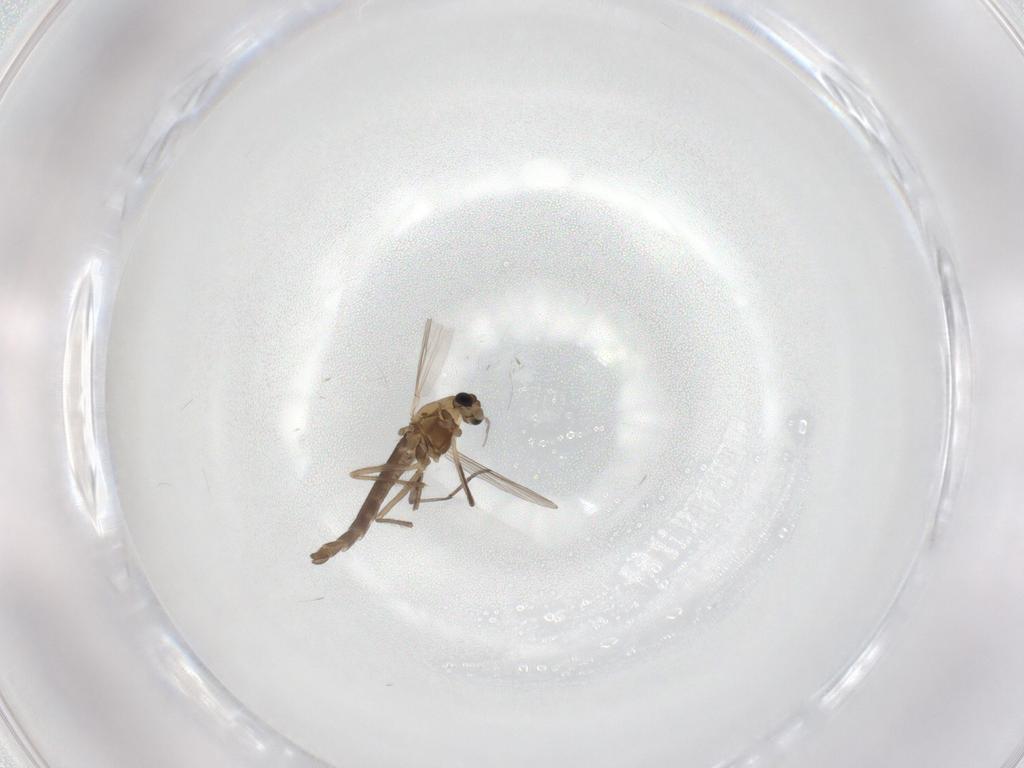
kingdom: Animalia
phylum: Arthropoda
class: Insecta
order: Diptera
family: Chironomidae
